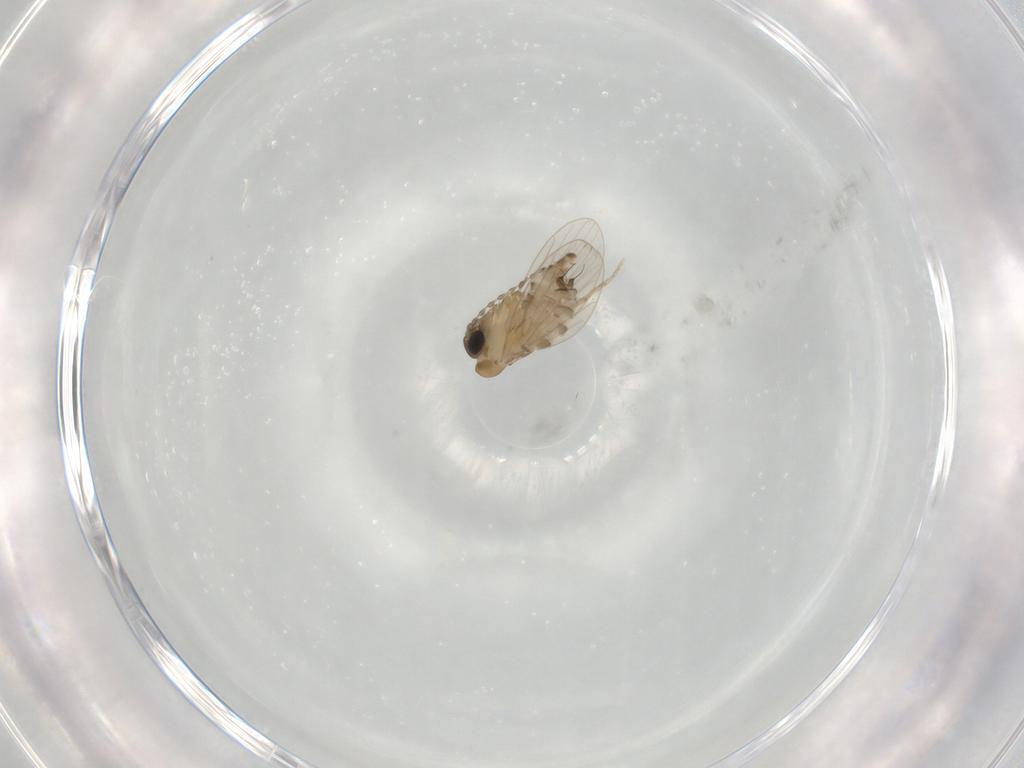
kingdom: Animalia
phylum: Arthropoda
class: Insecta
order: Diptera
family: Psychodidae
